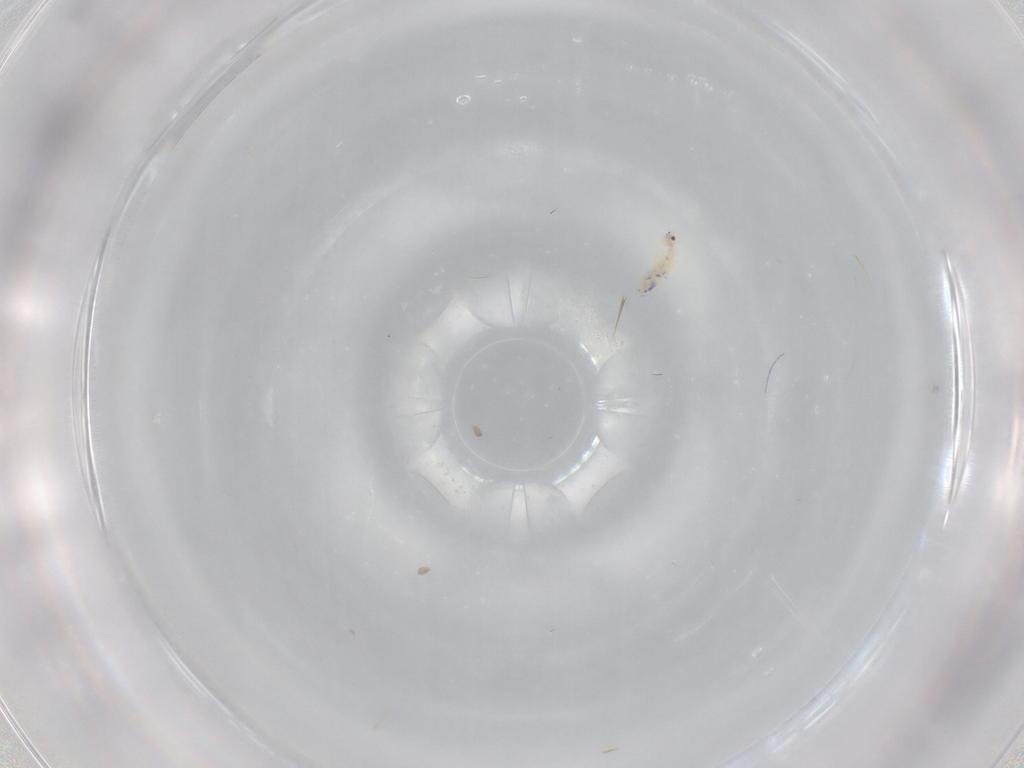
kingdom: Animalia
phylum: Arthropoda
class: Collembola
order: Entomobryomorpha
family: Entomobryidae
